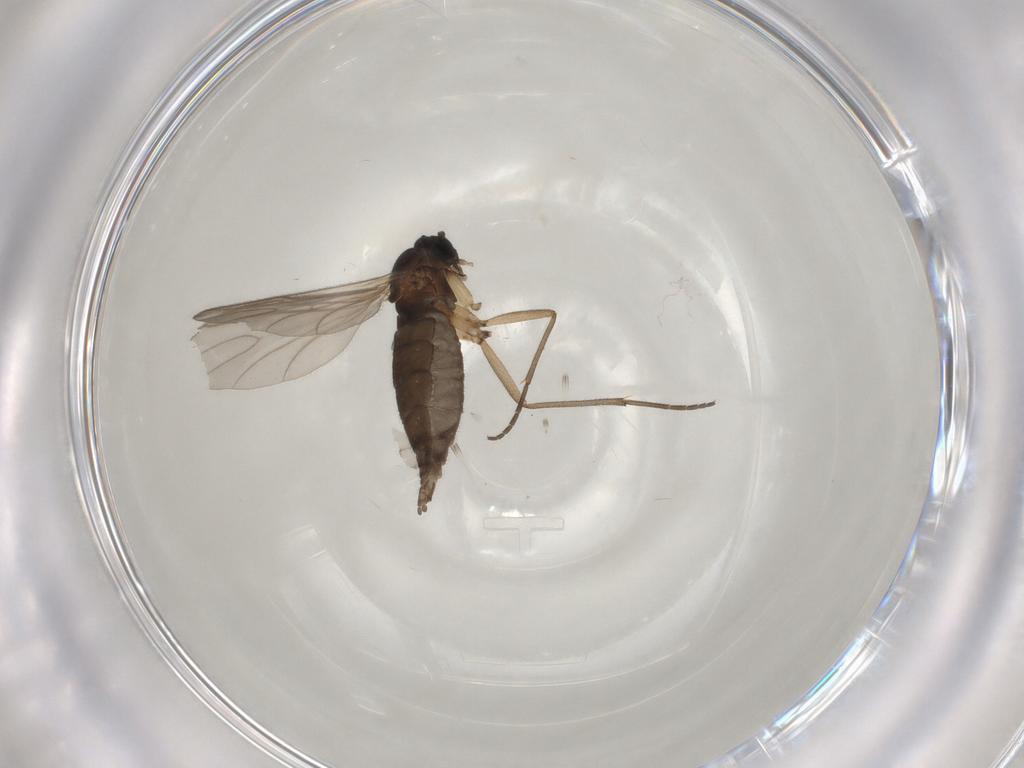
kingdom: Animalia
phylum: Arthropoda
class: Insecta
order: Diptera
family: Sciaridae
